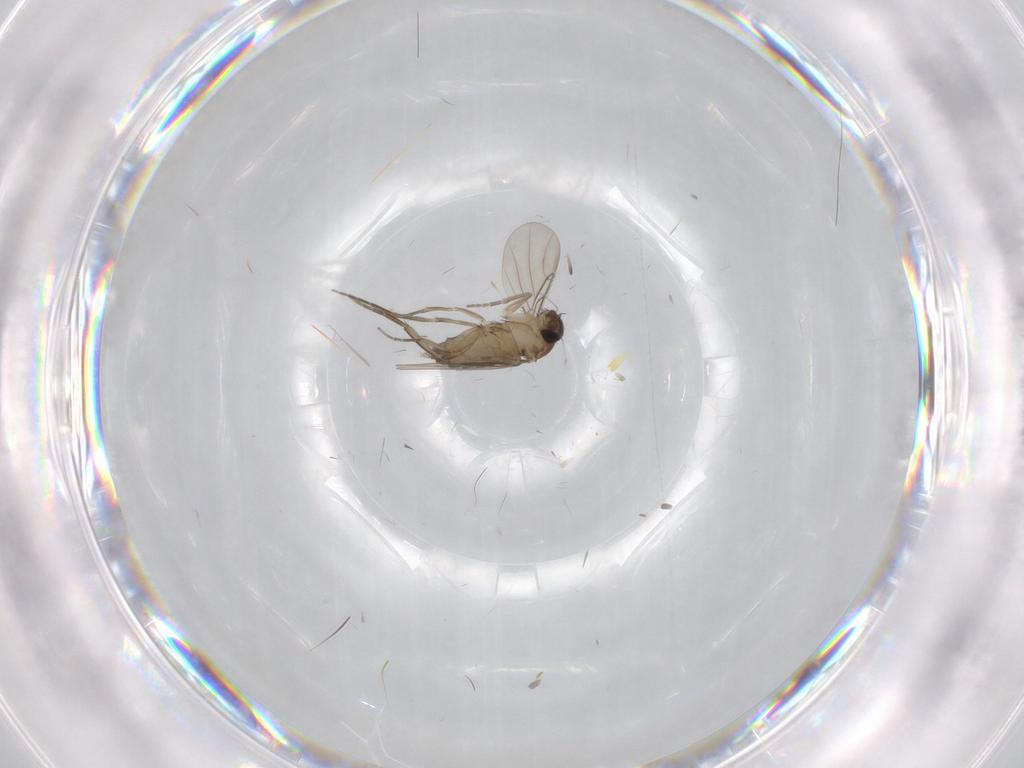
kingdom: Animalia
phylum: Arthropoda
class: Insecta
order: Diptera
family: Phoridae
